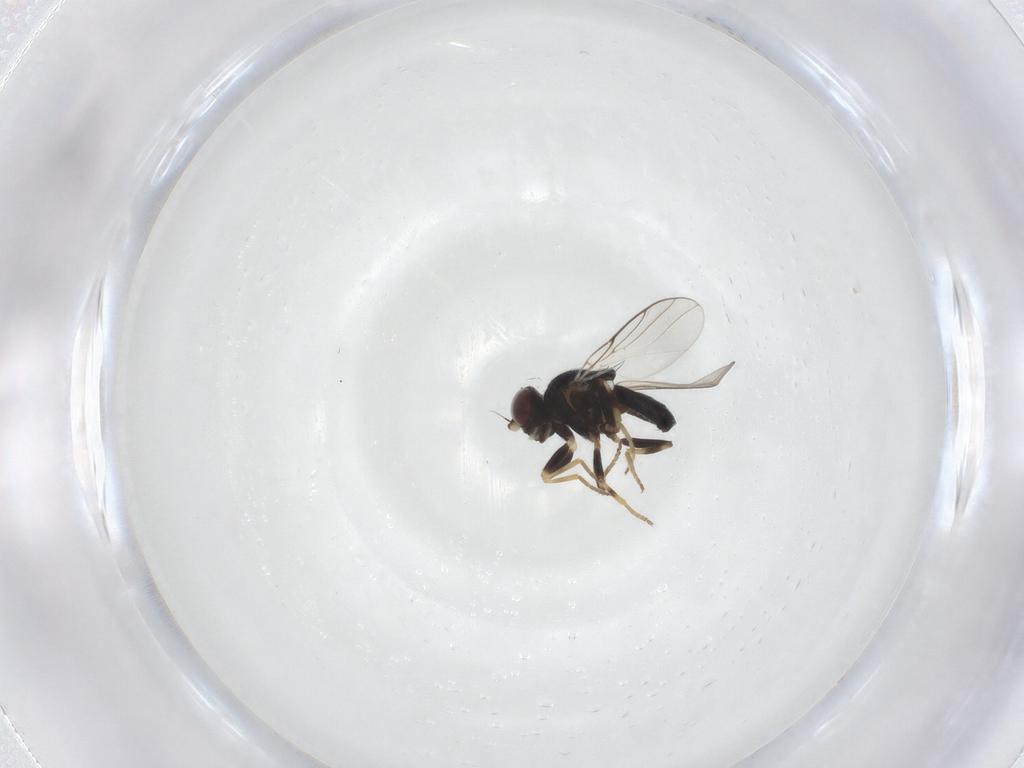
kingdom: Animalia
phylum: Arthropoda
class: Insecta
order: Diptera
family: Chloropidae
